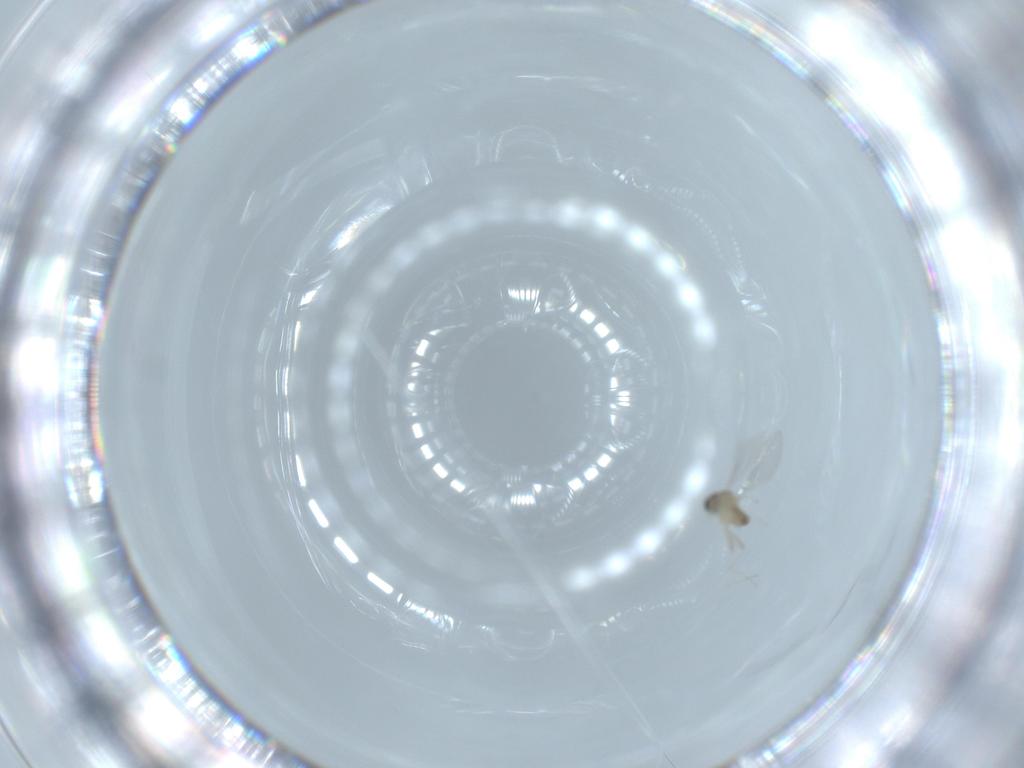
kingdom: Animalia
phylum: Arthropoda
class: Insecta
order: Diptera
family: Cecidomyiidae
